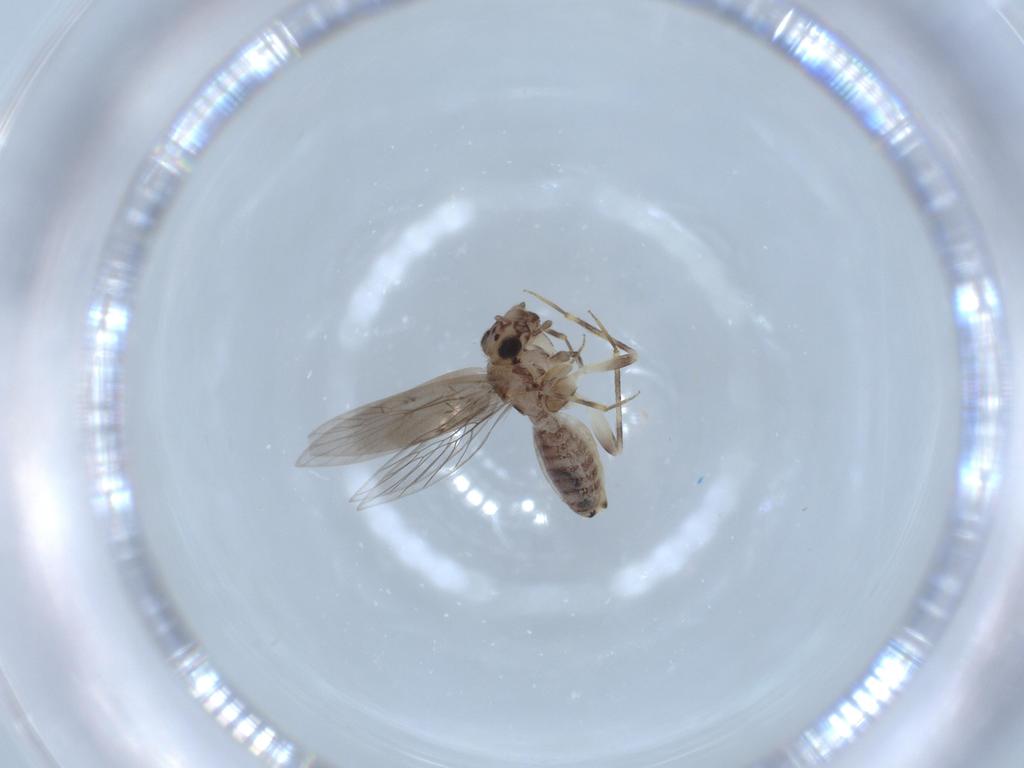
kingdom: Animalia
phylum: Arthropoda
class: Insecta
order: Psocodea
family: Lepidopsocidae
